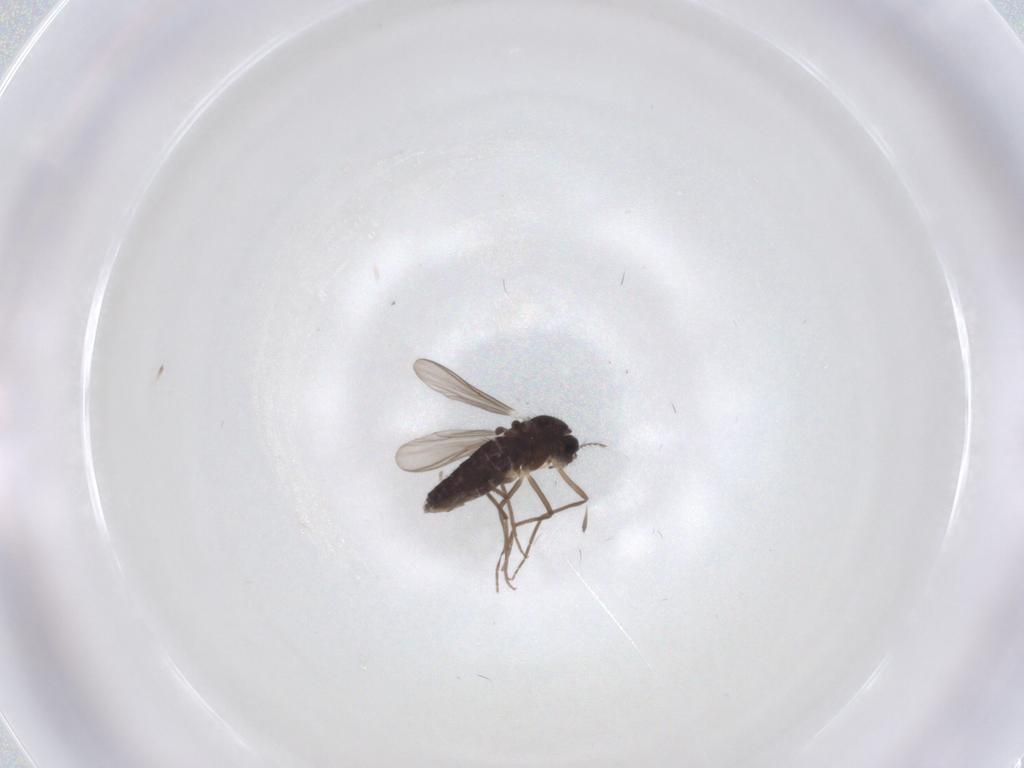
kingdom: Animalia
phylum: Arthropoda
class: Insecta
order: Diptera
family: Chironomidae
